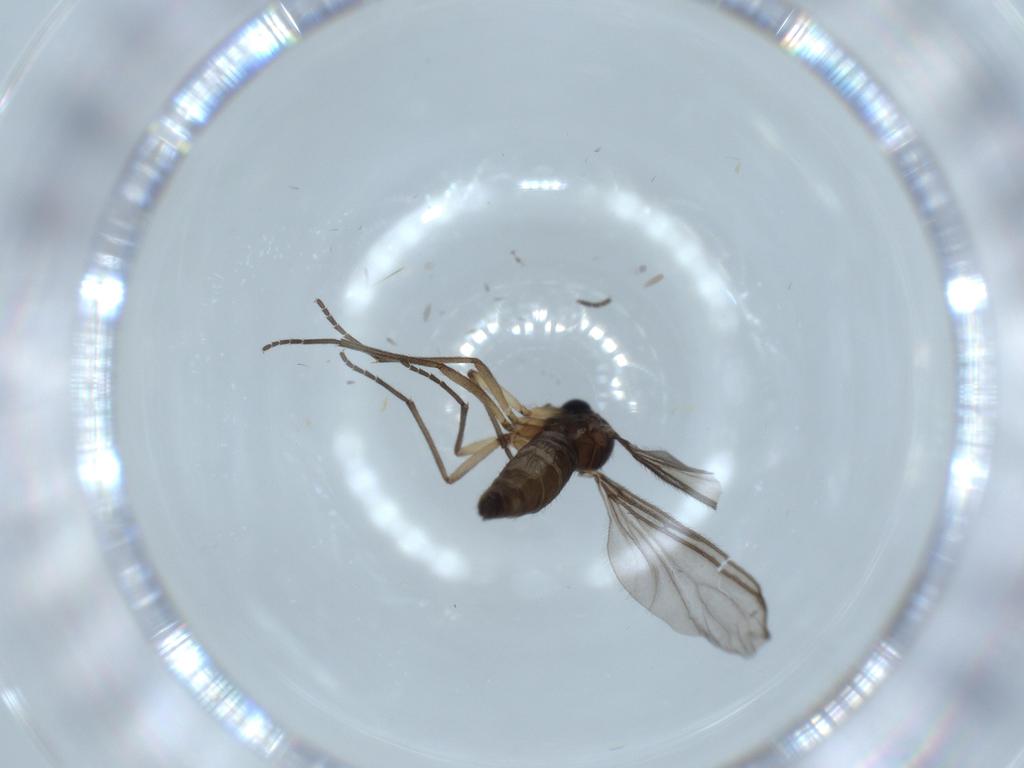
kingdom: Animalia
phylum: Arthropoda
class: Insecta
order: Diptera
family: Sciaridae
